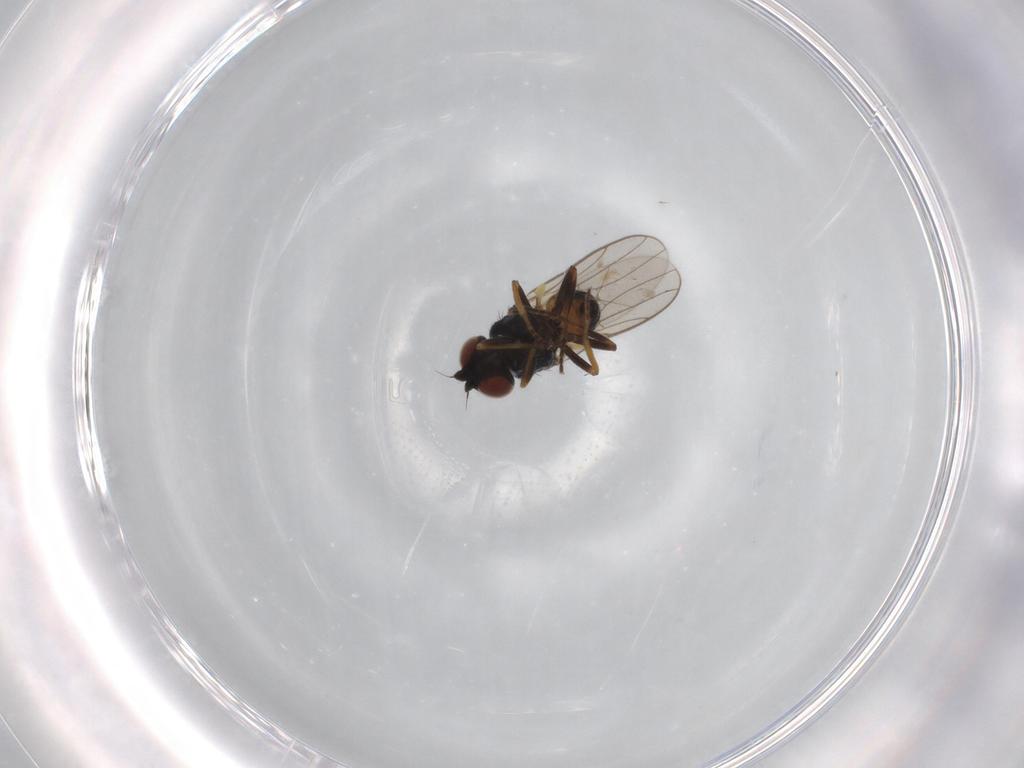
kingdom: Animalia
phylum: Arthropoda
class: Insecta
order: Diptera
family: Chloropidae
